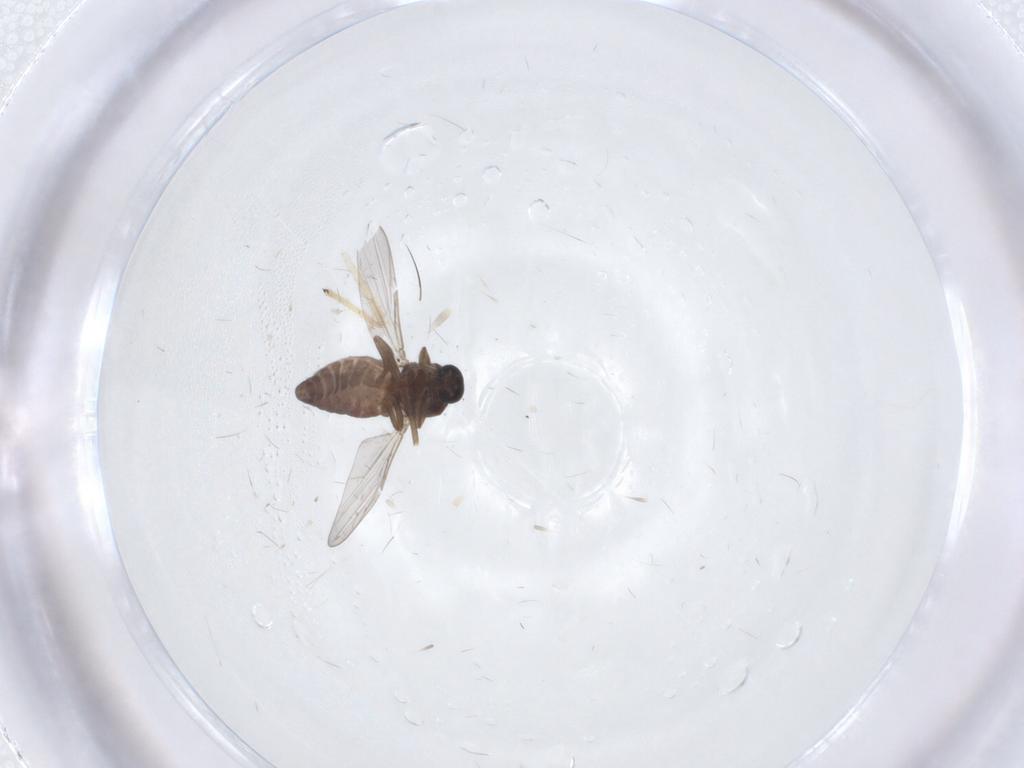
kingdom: Animalia
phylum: Arthropoda
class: Insecta
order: Diptera
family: Ceratopogonidae
